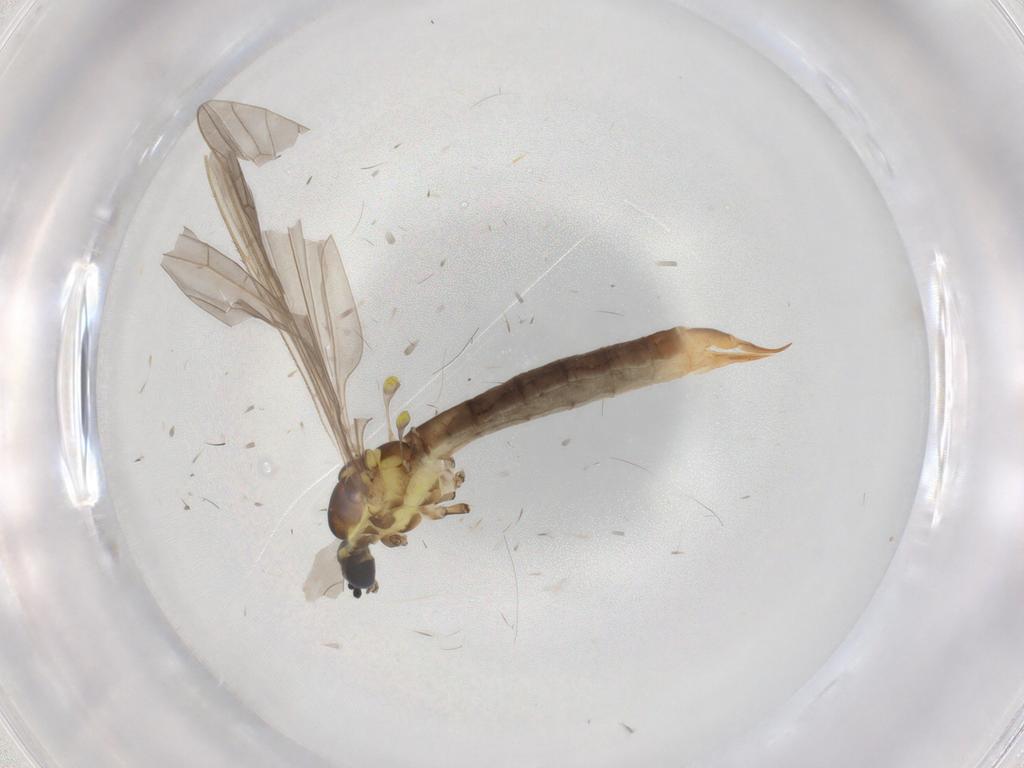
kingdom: Animalia
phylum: Arthropoda
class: Insecta
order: Diptera
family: Limoniidae
